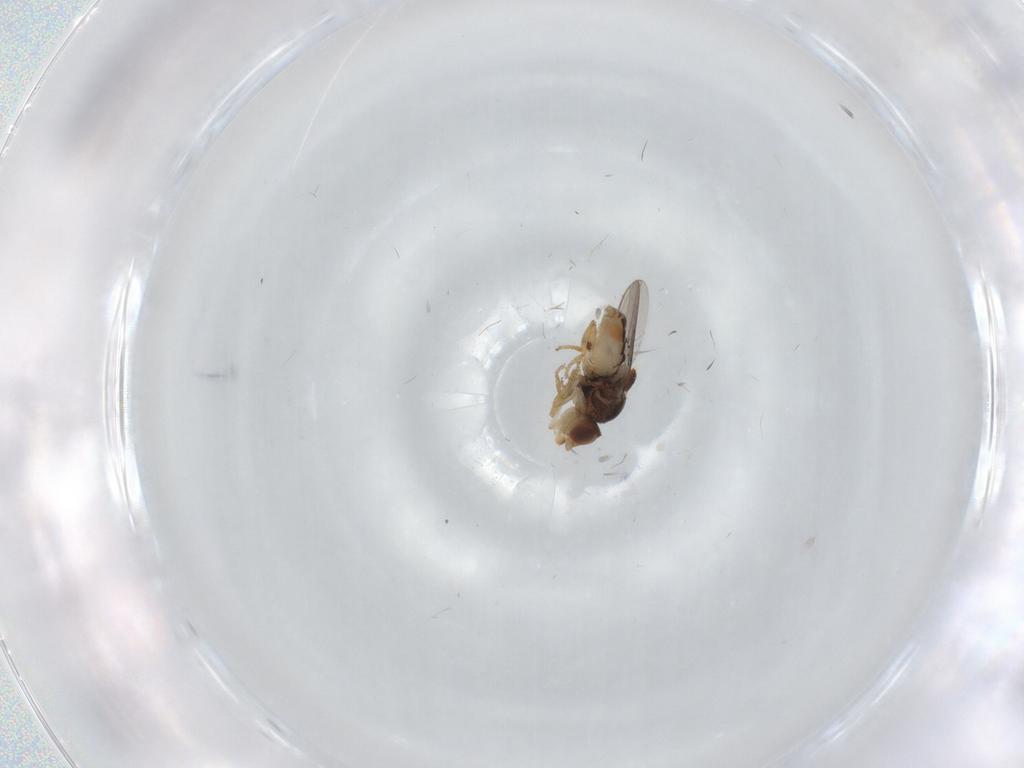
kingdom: Animalia
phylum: Arthropoda
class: Insecta
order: Diptera
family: Chloropidae
